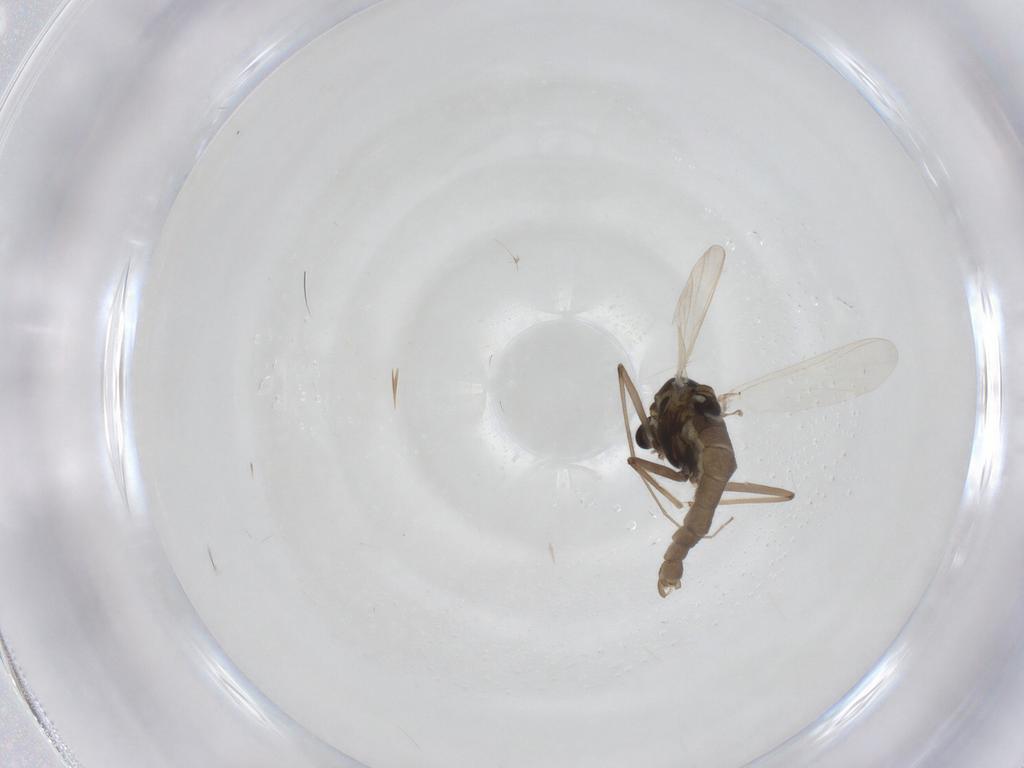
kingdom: Animalia
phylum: Arthropoda
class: Insecta
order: Diptera
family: Chironomidae
